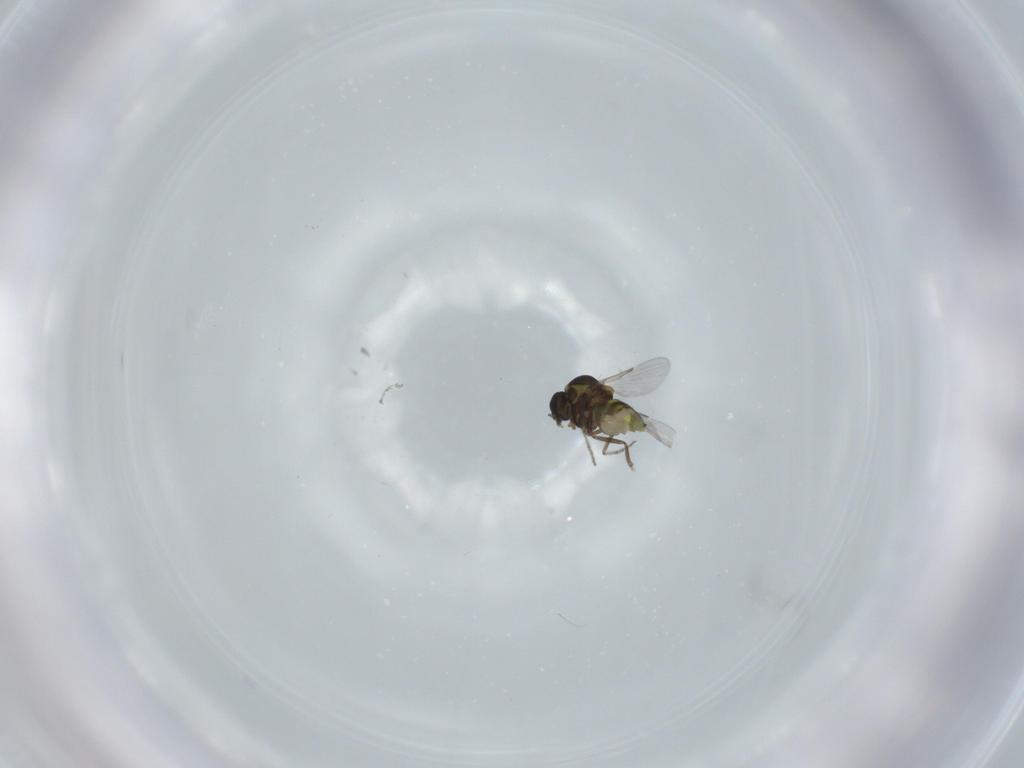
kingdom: Animalia
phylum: Arthropoda
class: Insecta
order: Diptera
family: Ceratopogonidae
